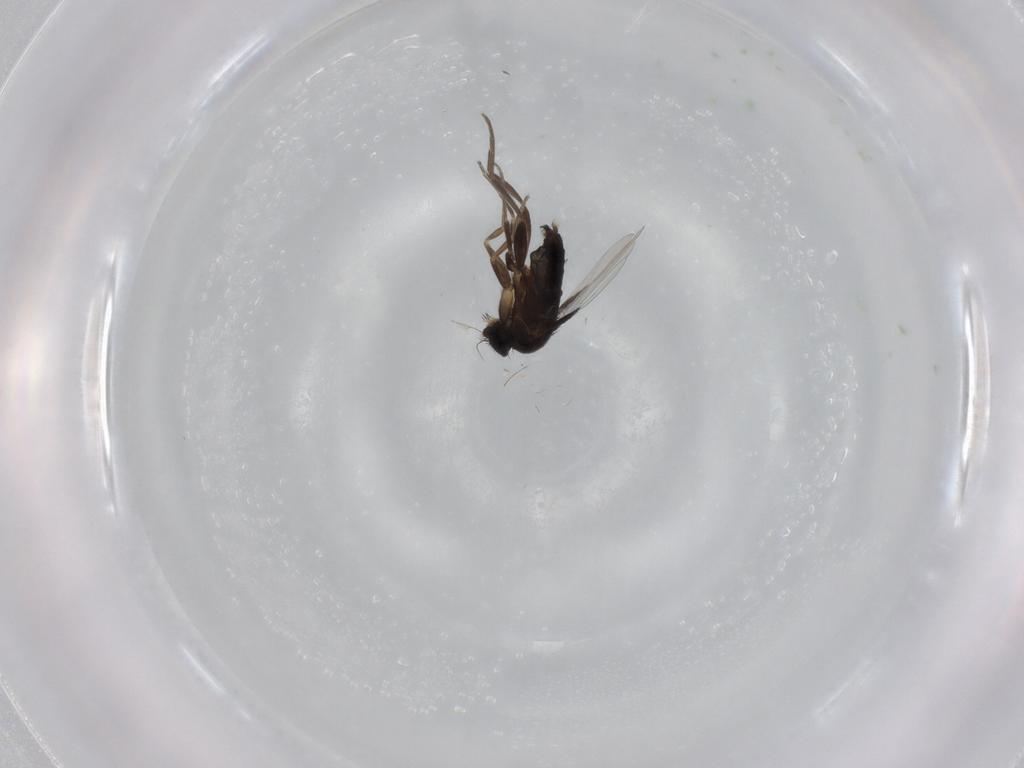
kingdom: Animalia
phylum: Arthropoda
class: Insecta
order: Diptera
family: Phoridae
